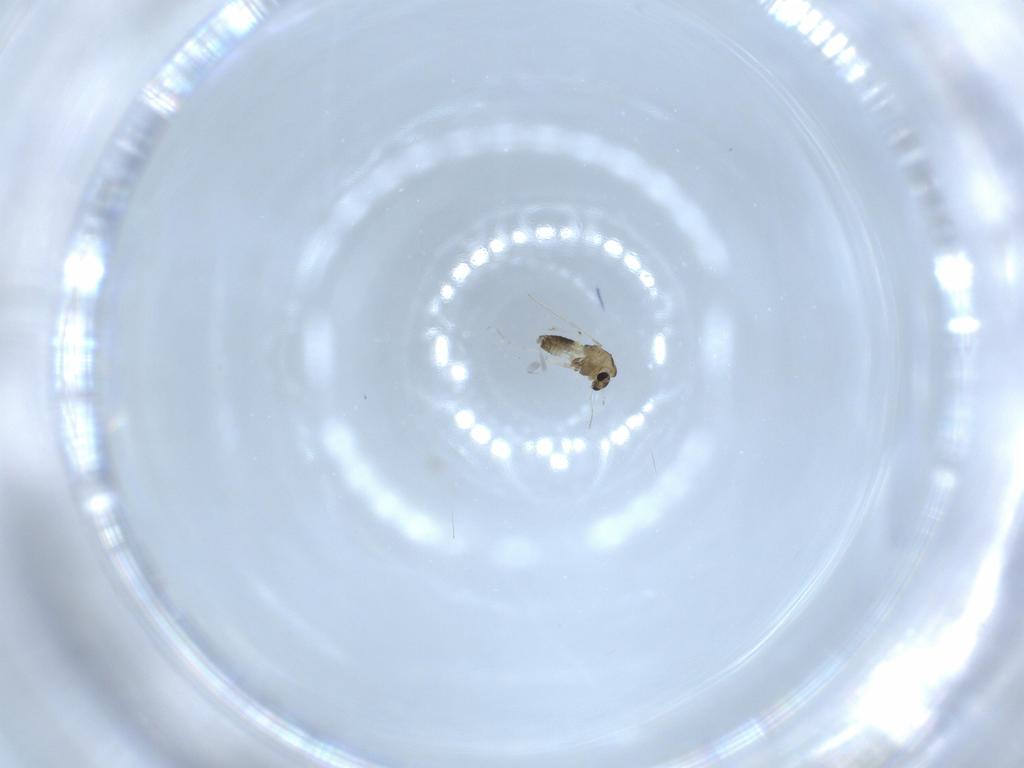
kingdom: Animalia
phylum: Arthropoda
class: Insecta
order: Diptera
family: Chironomidae
